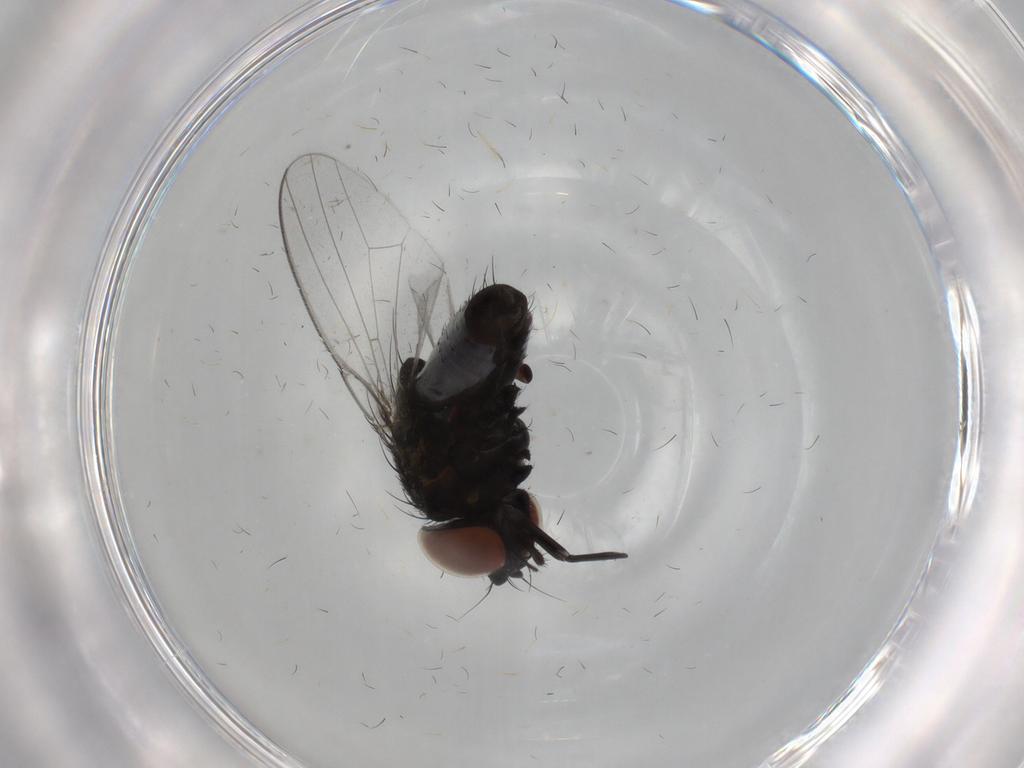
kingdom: Animalia
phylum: Arthropoda
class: Insecta
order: Diptera
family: Milichiidae
